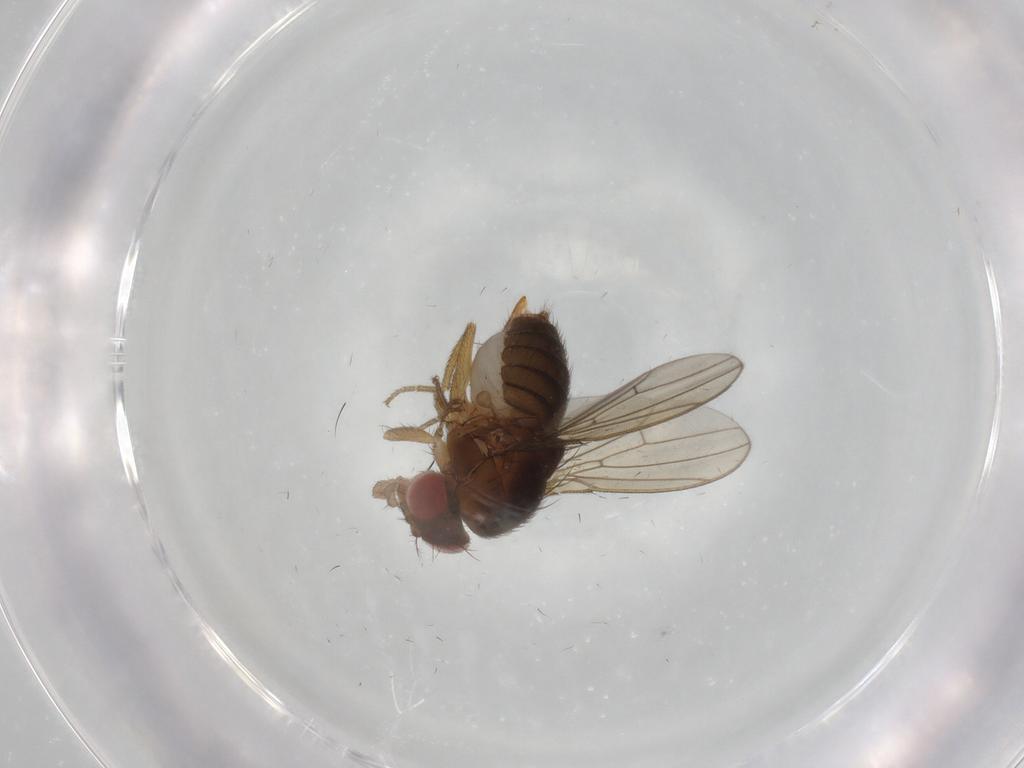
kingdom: Animalia
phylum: Arthropoda
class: Insecta
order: Diptera
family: Drosophilidae
